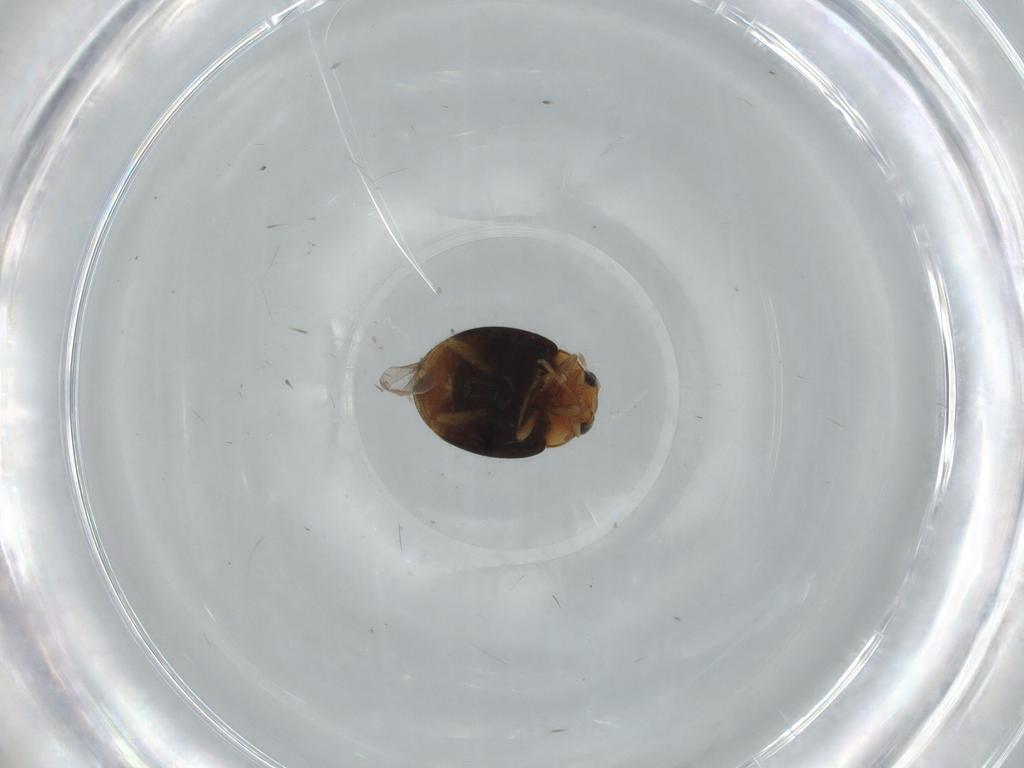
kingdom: Animalia
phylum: Arthropoda
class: Insecta
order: Coleoptera
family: Coccinellidae
